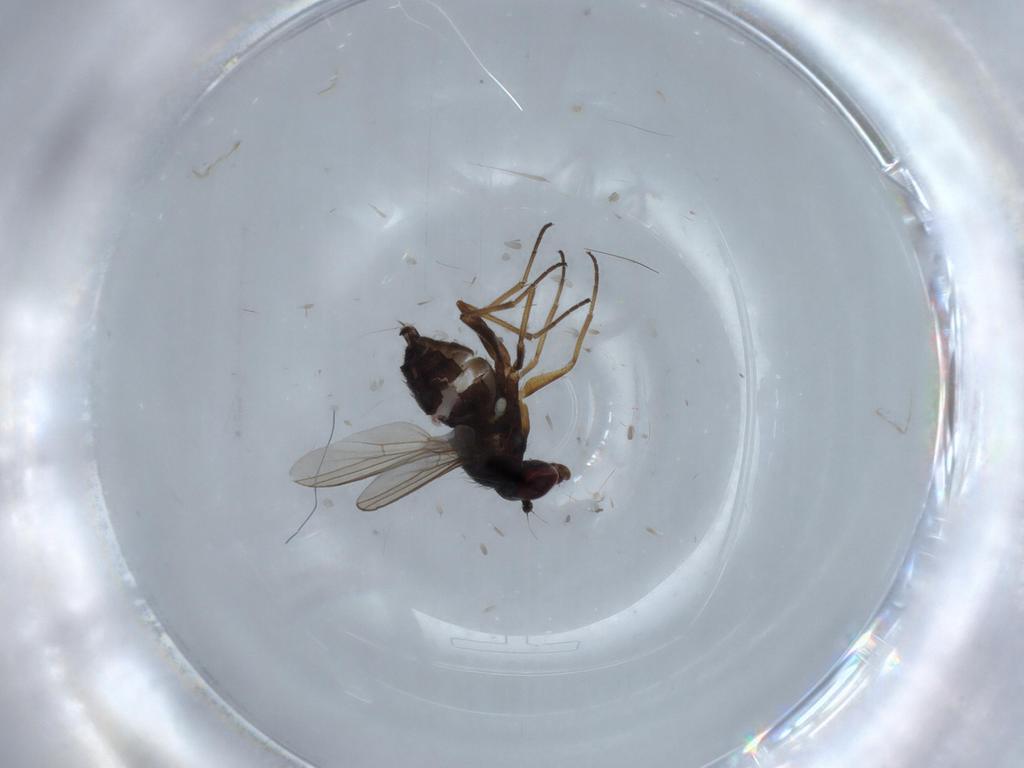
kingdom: Animalia
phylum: Arthropoda
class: Insecta
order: Diptera
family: Dolichopodidae
